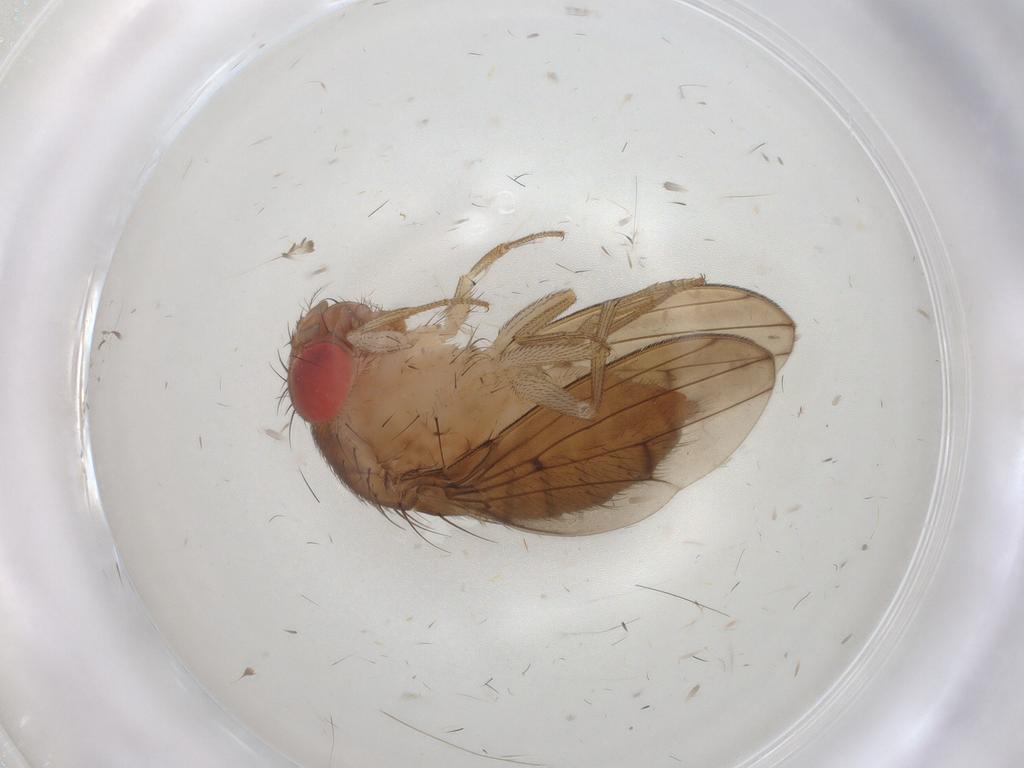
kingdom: Animalia
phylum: Arthropoda
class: Insecta
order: Diptera
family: Drosophilidae
